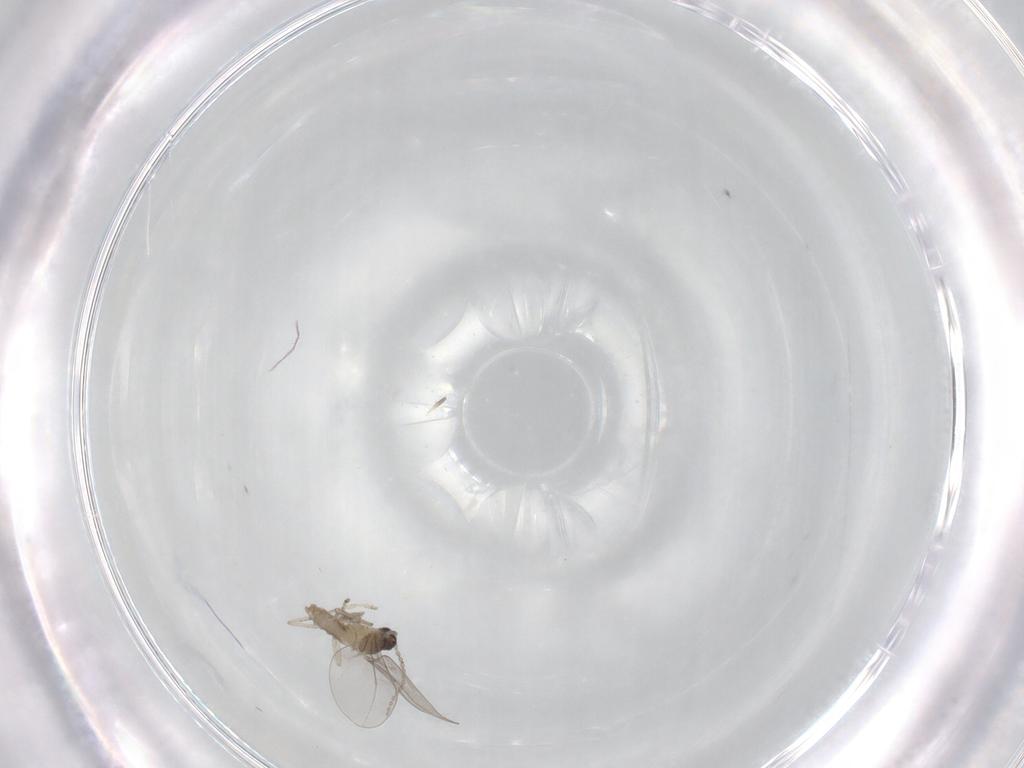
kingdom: Animalia
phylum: Arthropoda
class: Insecta
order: Diptera
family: Cecidomyiidae
